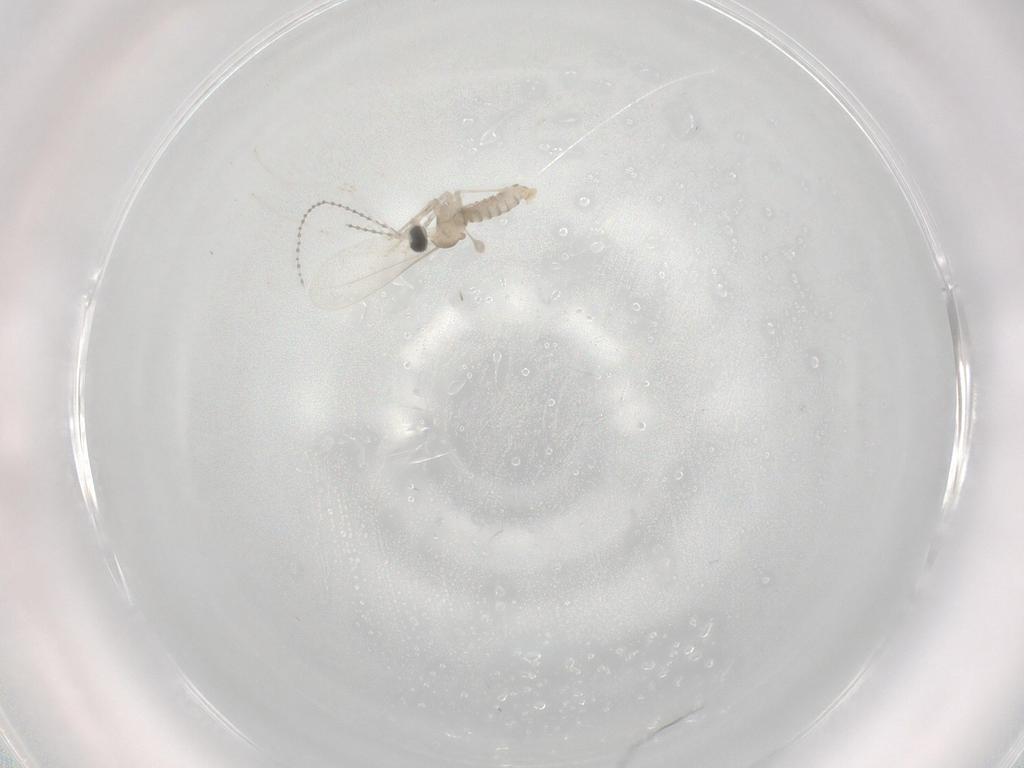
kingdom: Animalia
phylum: Arthropoda
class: Insecta
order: Diptera
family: Cecidomyiidae
